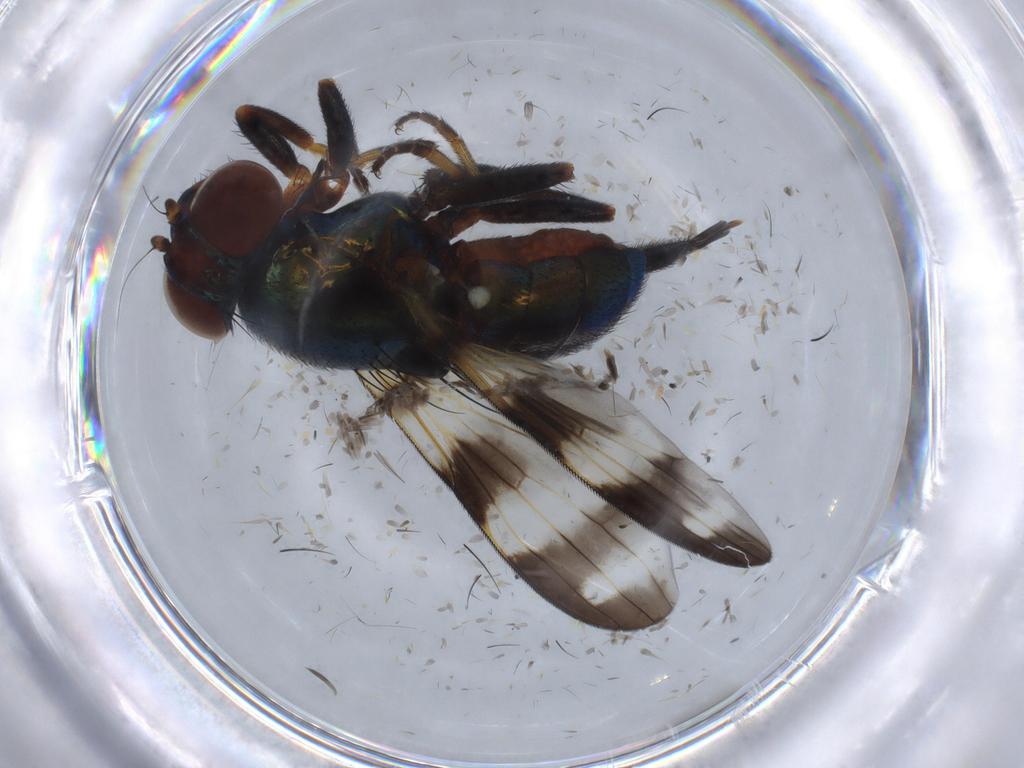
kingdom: Animalia
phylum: Arthropoda
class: Insecta
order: Diptera
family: Ulidiidae
